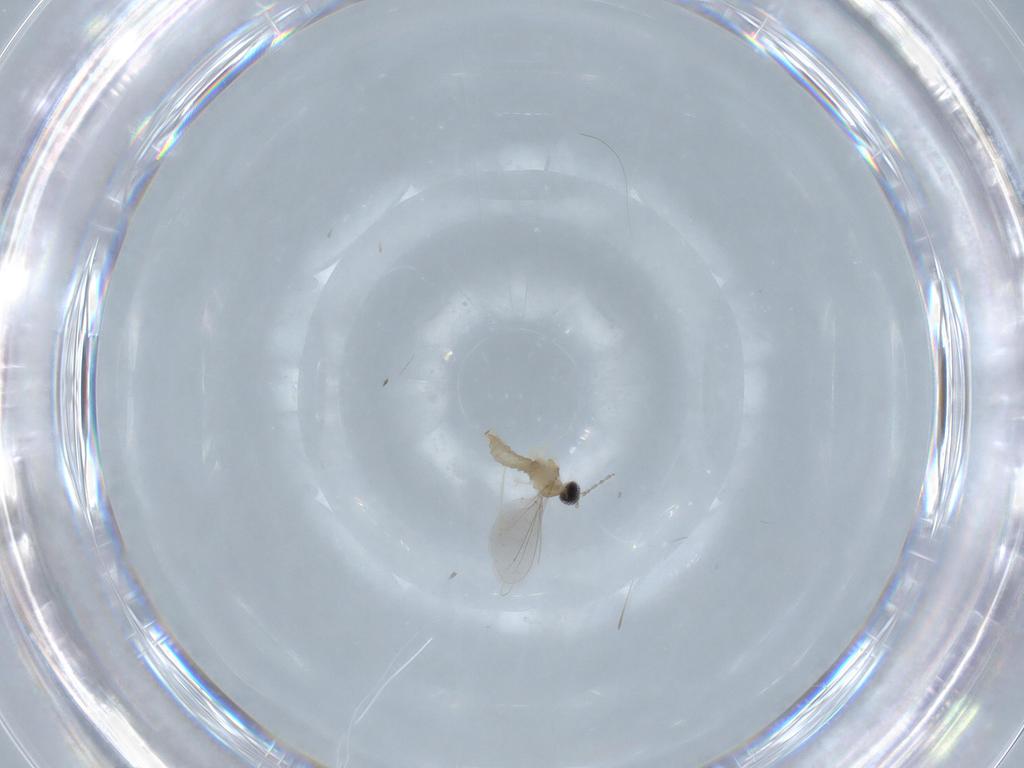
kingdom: Animalia
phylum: Arthropoda
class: Insecta
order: Diptera
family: Cecidomyiidae
